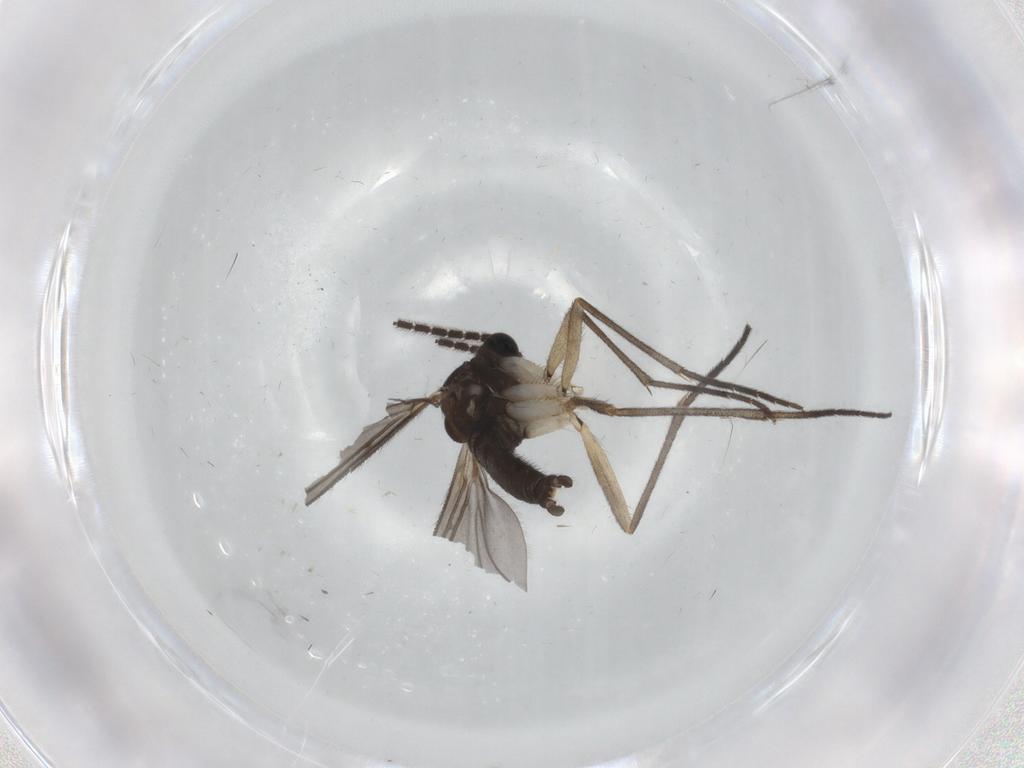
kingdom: Animalia
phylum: Arthropoda
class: Insecta
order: Diptera
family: Sciaridae
